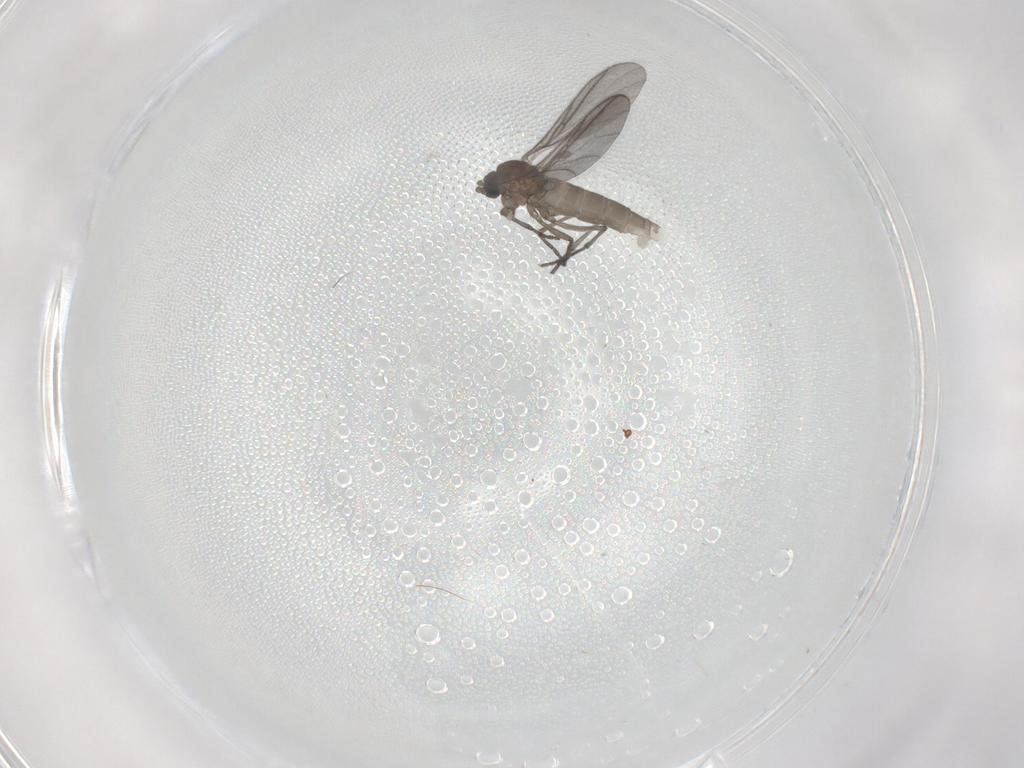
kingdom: Animalia
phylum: Arthropoda
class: Insecta
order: Diptera
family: Sciaridae
